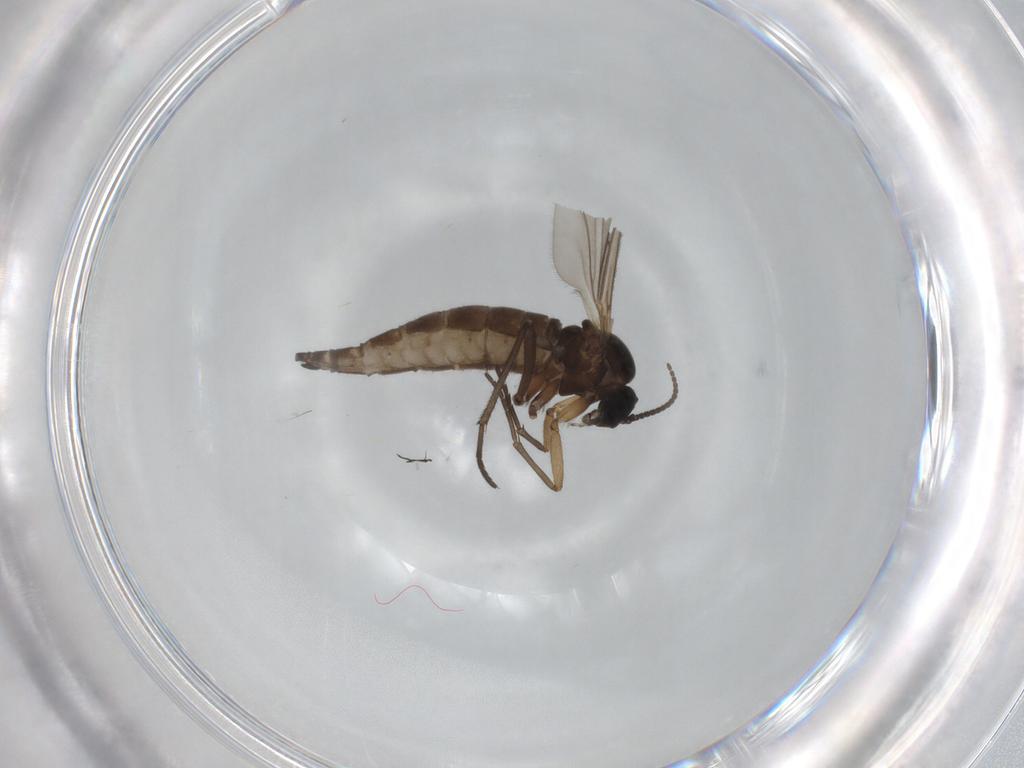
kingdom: Animalia
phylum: Arthropoda
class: Insecta
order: Diptera
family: Sciaridae
